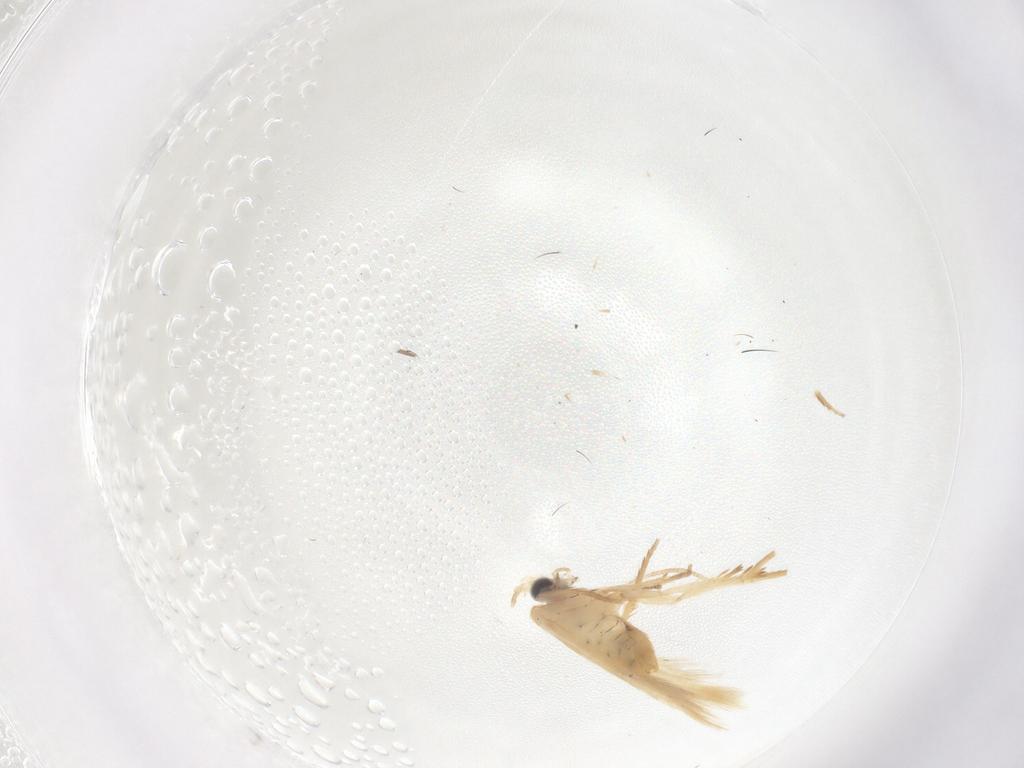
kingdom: Animalia
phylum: Arthropoda
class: Insecta
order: Lepidoptera
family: Nepticulidae
